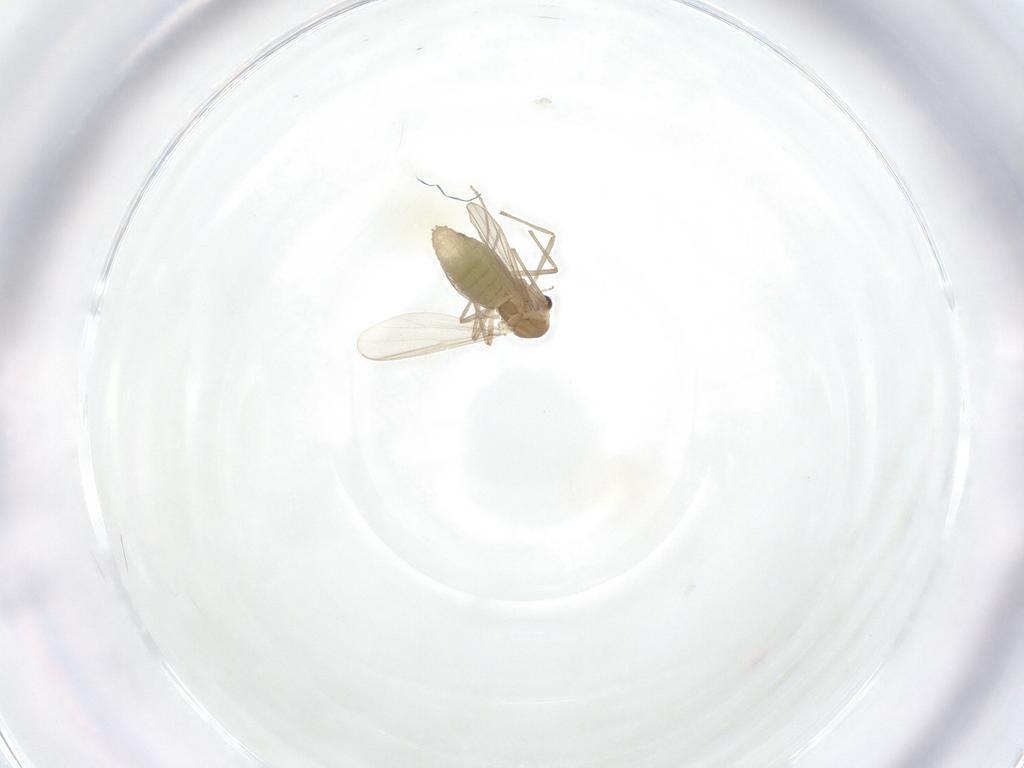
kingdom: Animalia
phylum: Arthropoda
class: Insecta
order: Diptera
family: Chironomidae
